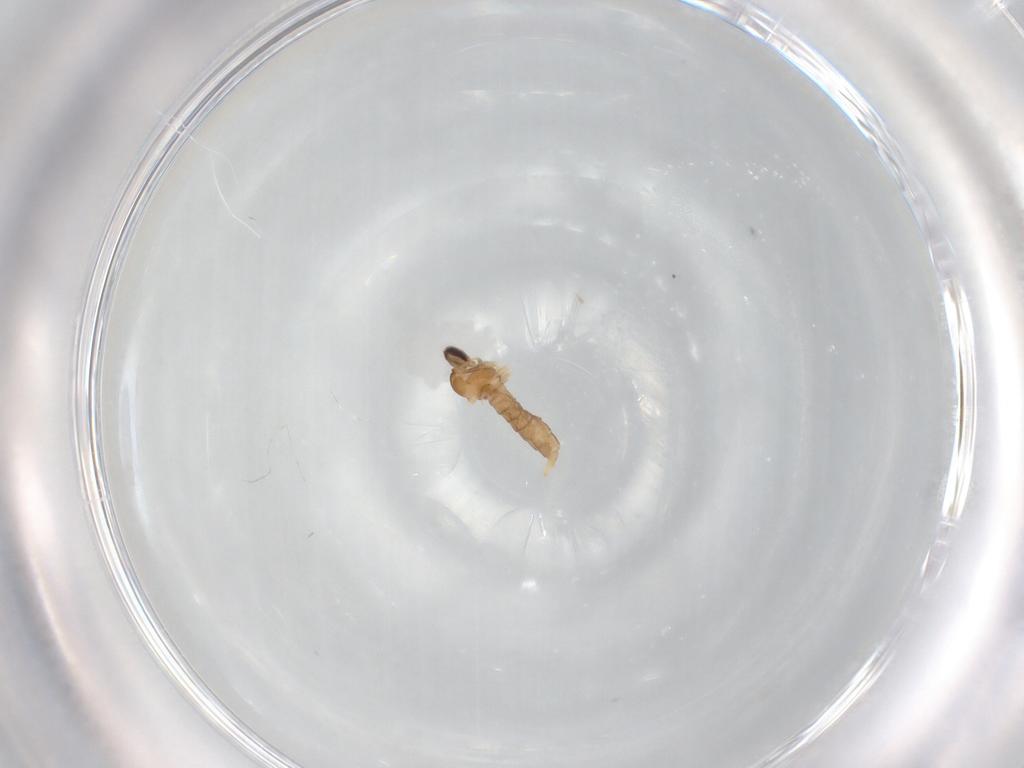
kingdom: Animalia
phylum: Arthropoda
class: Insecta
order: Diptera
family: Cecidomyiidae
